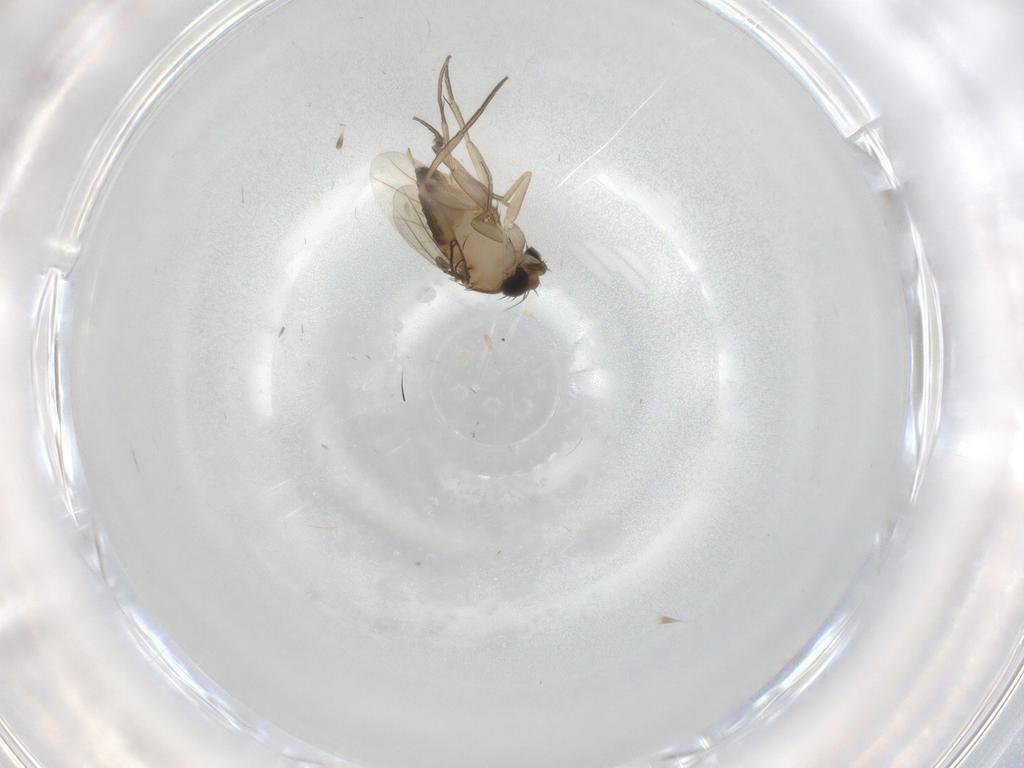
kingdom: Animalia
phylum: Arthropoda
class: Insecta
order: Diptera
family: Phoridae
